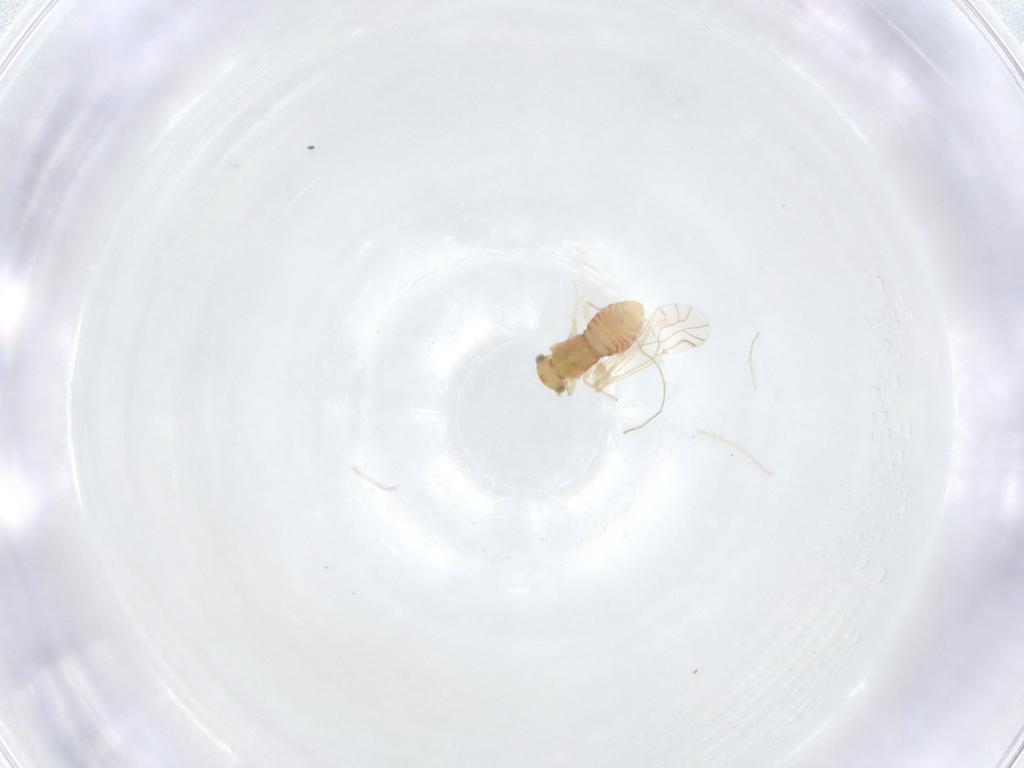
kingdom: Animalia
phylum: Arthropoda
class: Insecta
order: Psocodea
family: Lachesillidae
